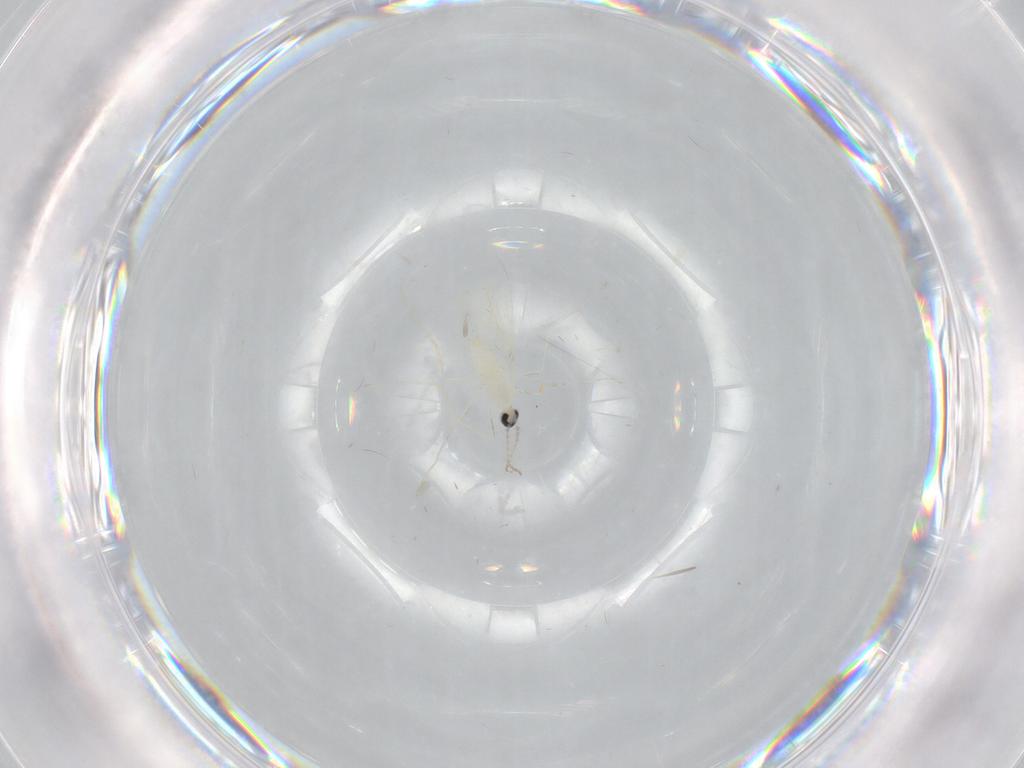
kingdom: Animalia
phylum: Arthropoda
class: Insecta
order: Diptera
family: Cecidomyiidae
